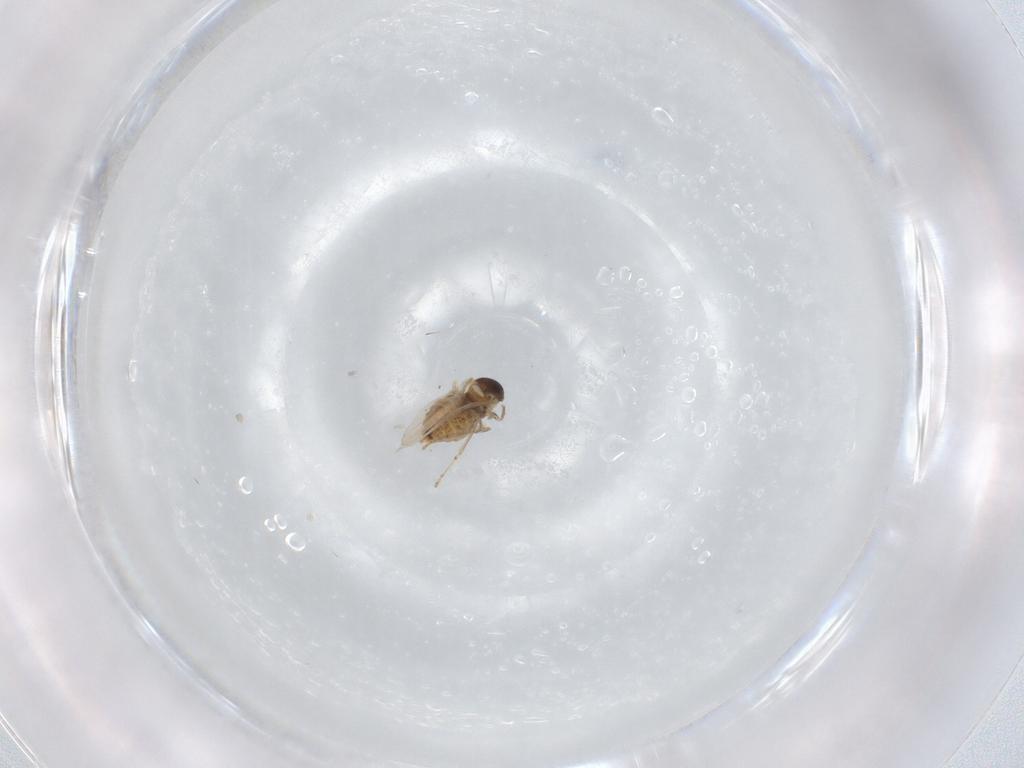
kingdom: Animalia
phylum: Arthropoda
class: Insecta
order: Diptera
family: Cecidomyiidae
